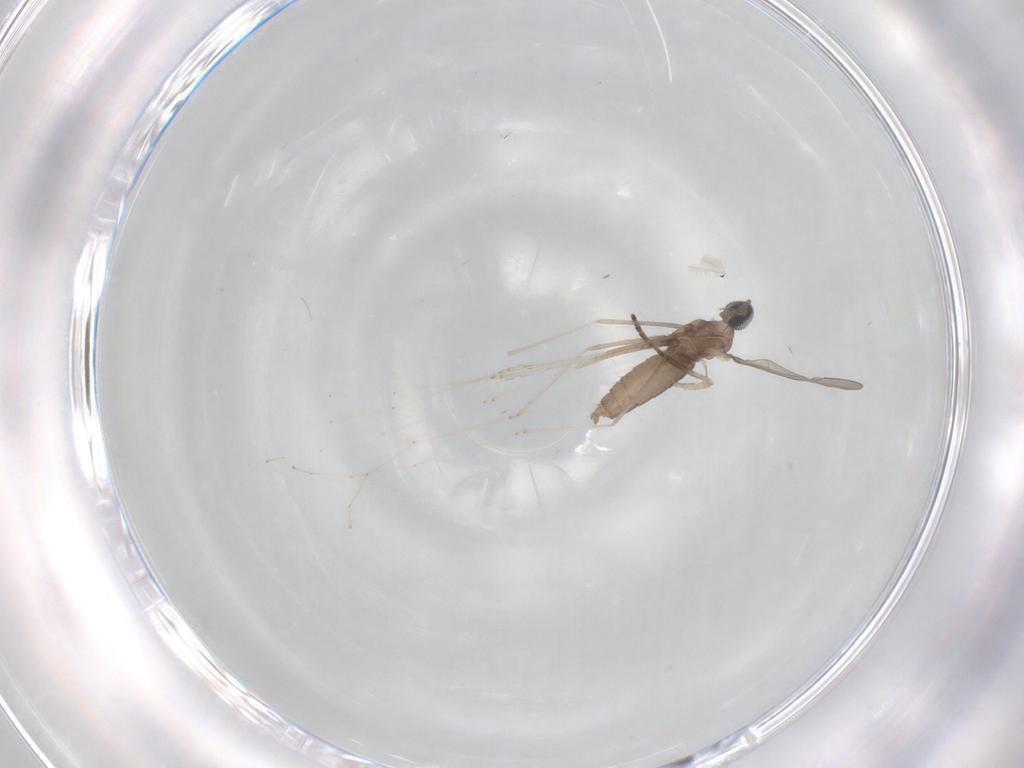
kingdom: Animalia
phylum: Arthropoda
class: Insecta
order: Diptera
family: Cecidomyiidae
